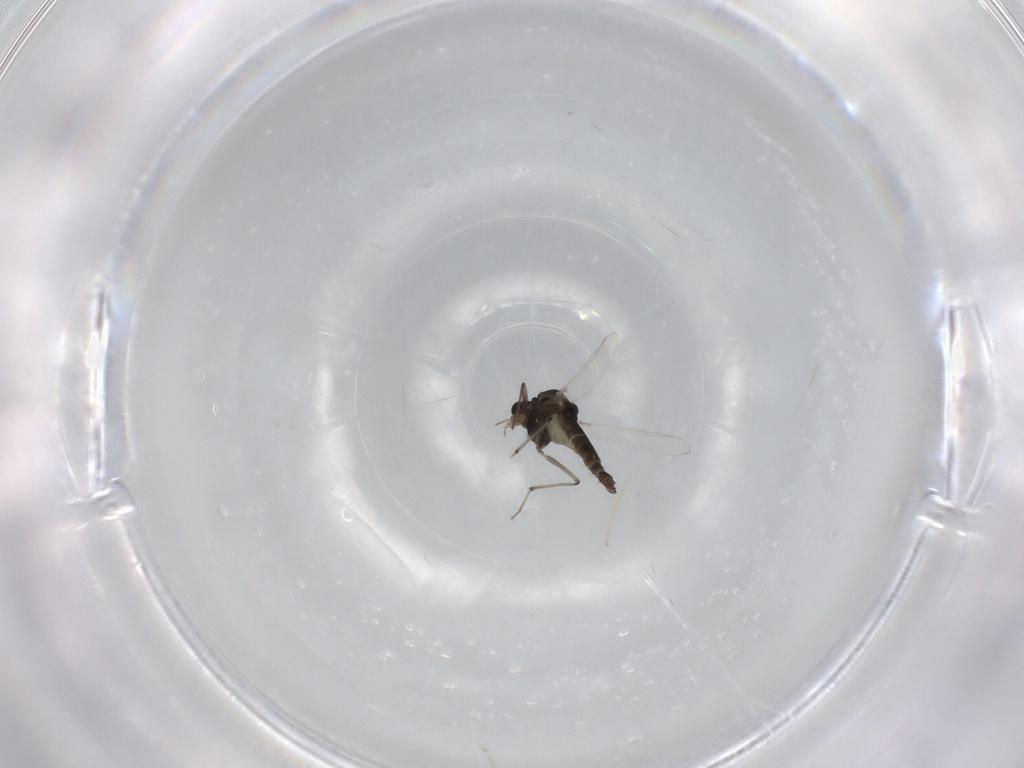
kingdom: Animalia
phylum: Arthropoda
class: Insecta
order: Diptera
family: Chironomidae
